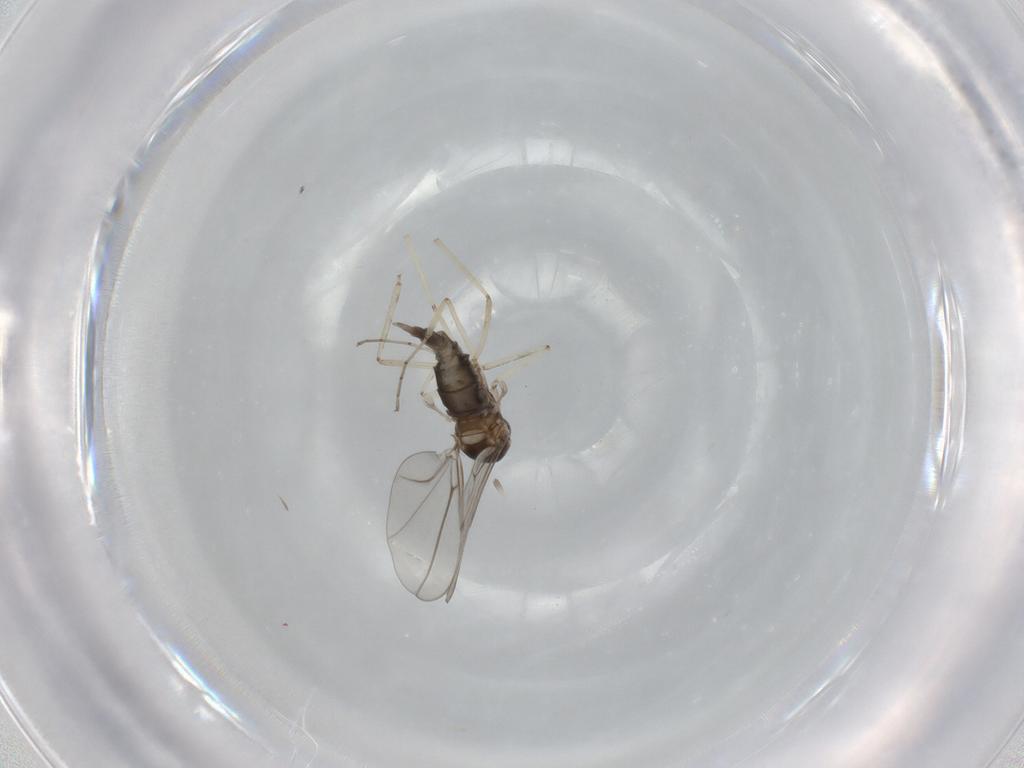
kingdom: Animalia
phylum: Arthropoda
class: Insecta
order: Diptera
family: Cecidomyiidae
